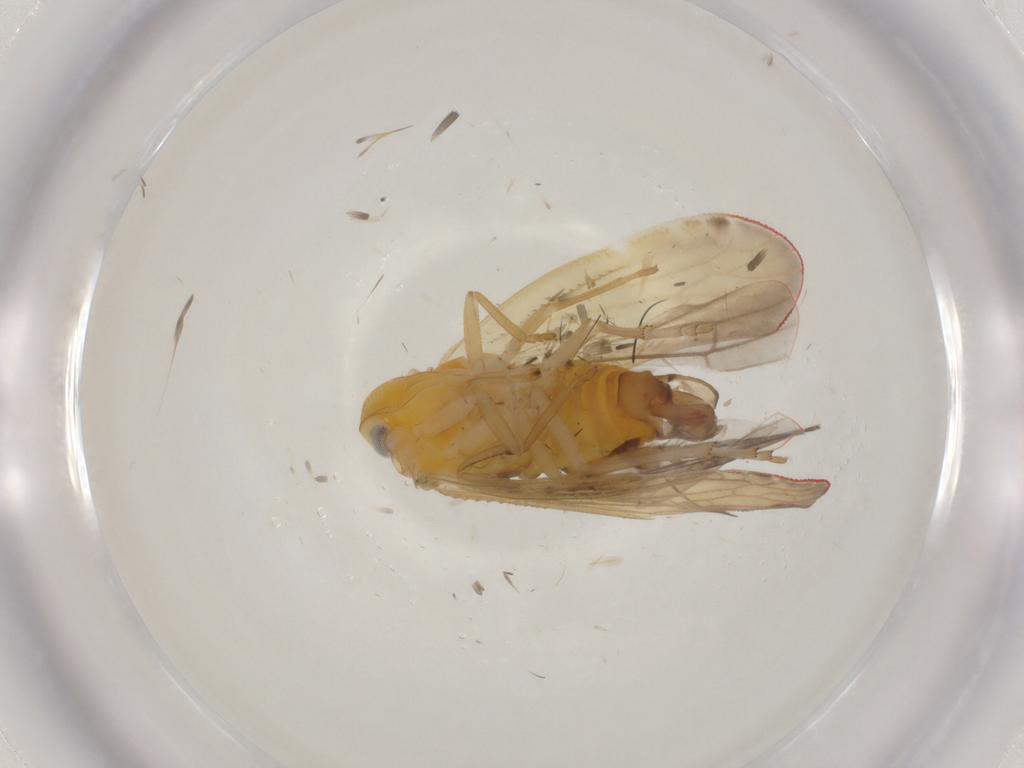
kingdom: Animalia
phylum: Arthropoda
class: Insecta
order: Hemiptera
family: Derbidae
